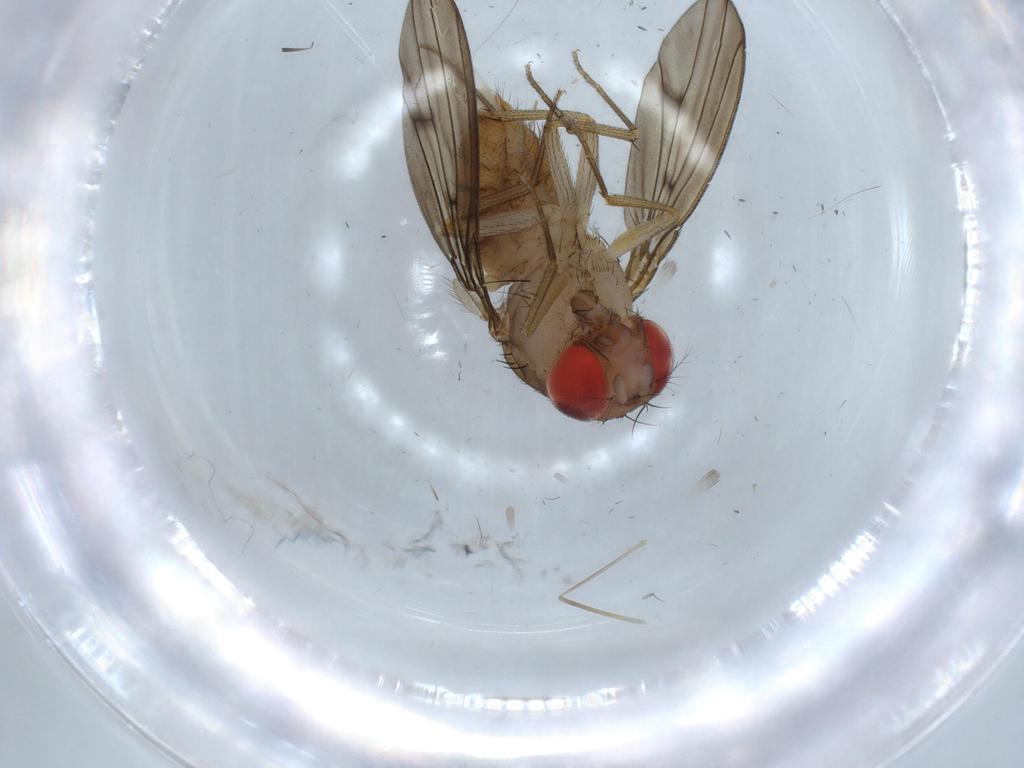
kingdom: Animalia
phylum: Arthropoda
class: Insecta
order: Diptera
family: Drosophilidae
